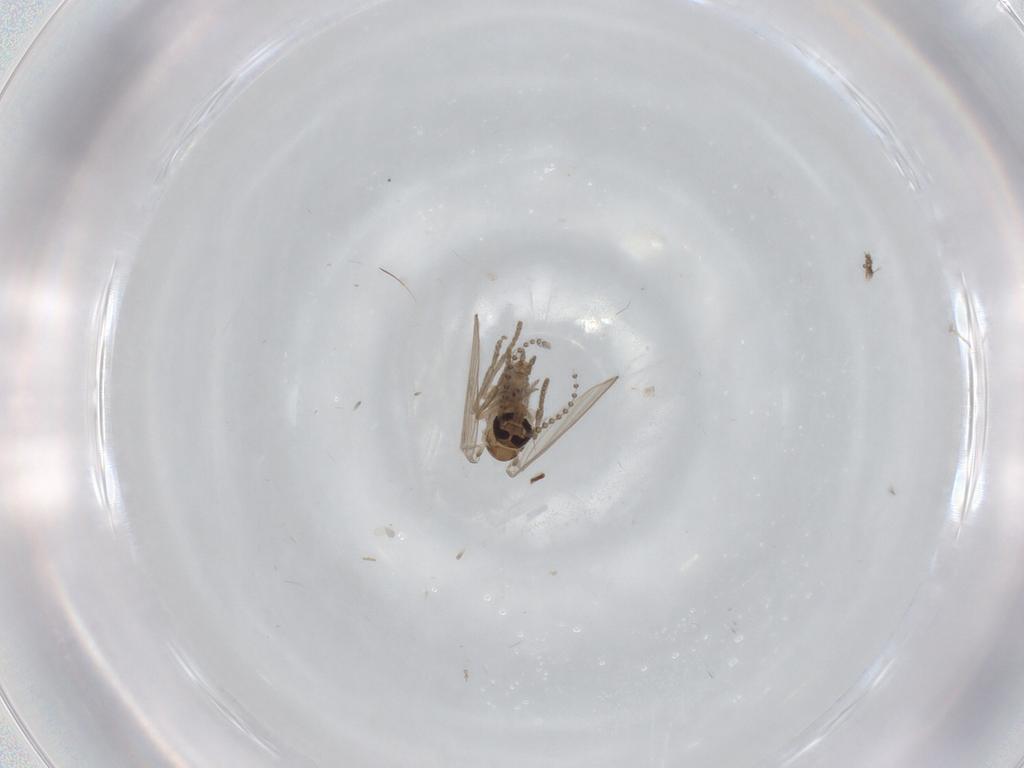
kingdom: Animalia
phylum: Arthropoda
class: Insecta
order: Diptera
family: Psychodidae
